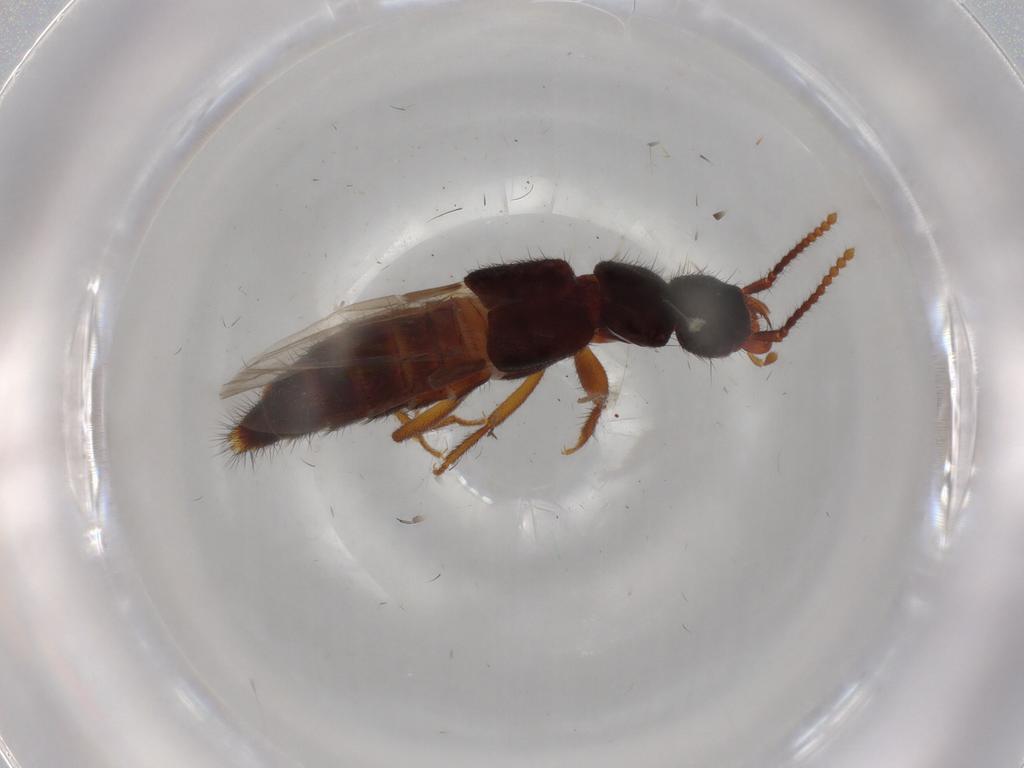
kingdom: Animalia
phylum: Arthropoda
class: Insecta
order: Coleoptera
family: Staphylinidae
